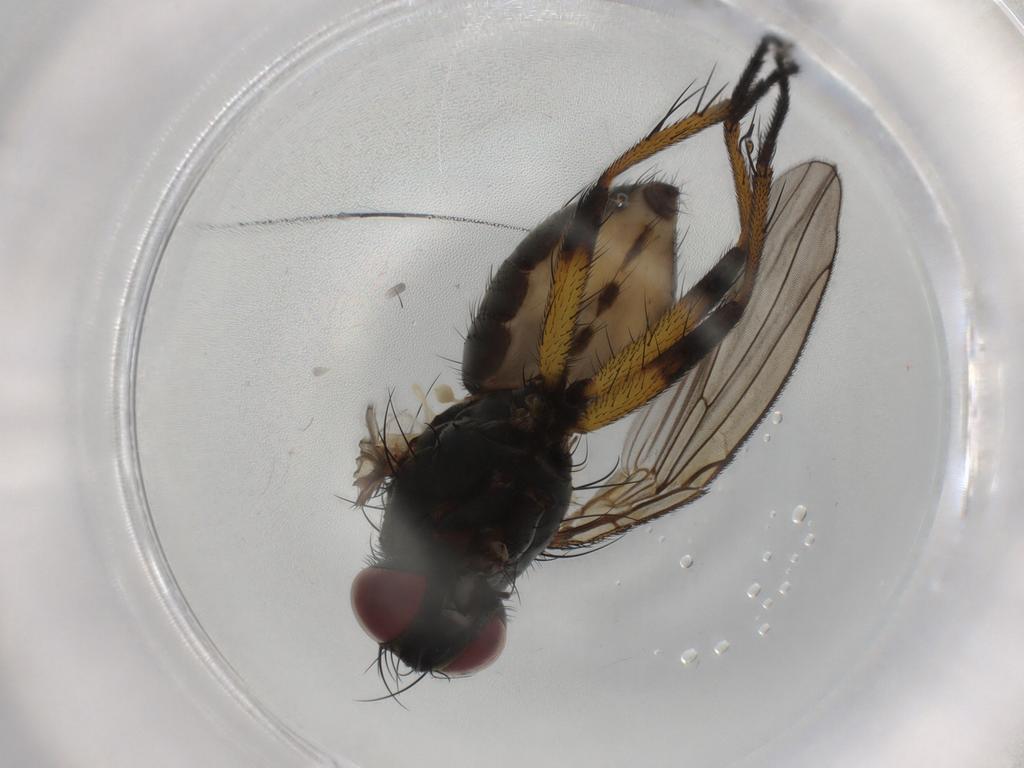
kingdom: Animalia
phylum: Arthropoda
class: Insecta
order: Diptera
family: Muscidae
